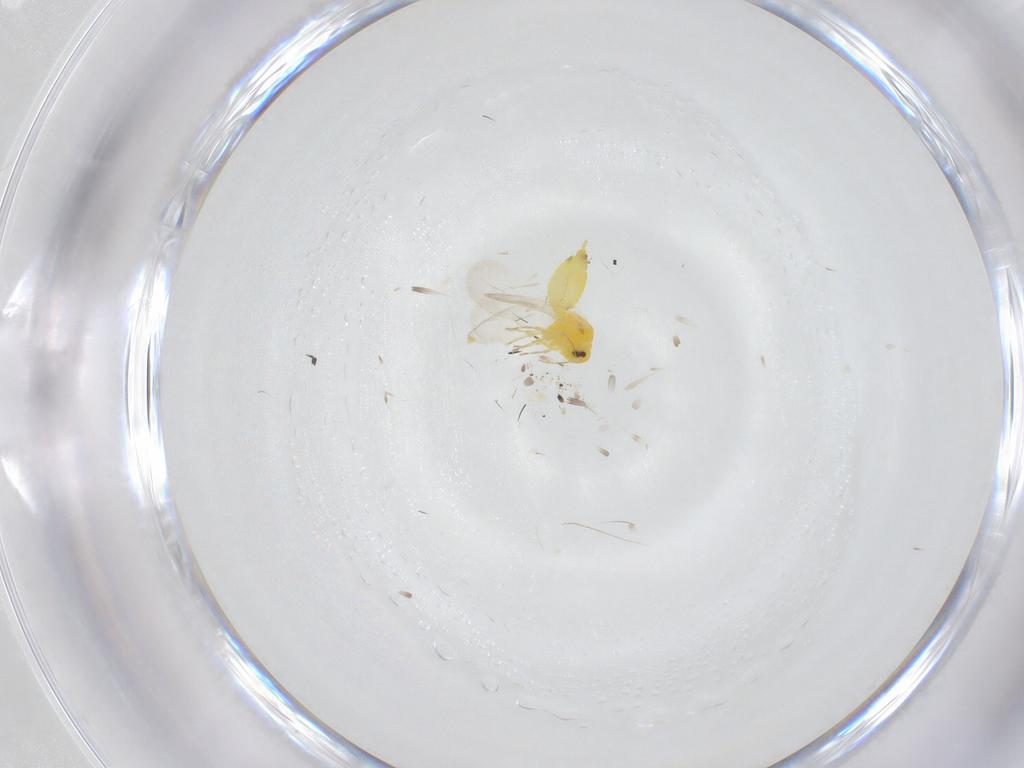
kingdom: Animalia
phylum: Arthropoda
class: Insecta
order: Hemiptera
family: Aleyrodidae
